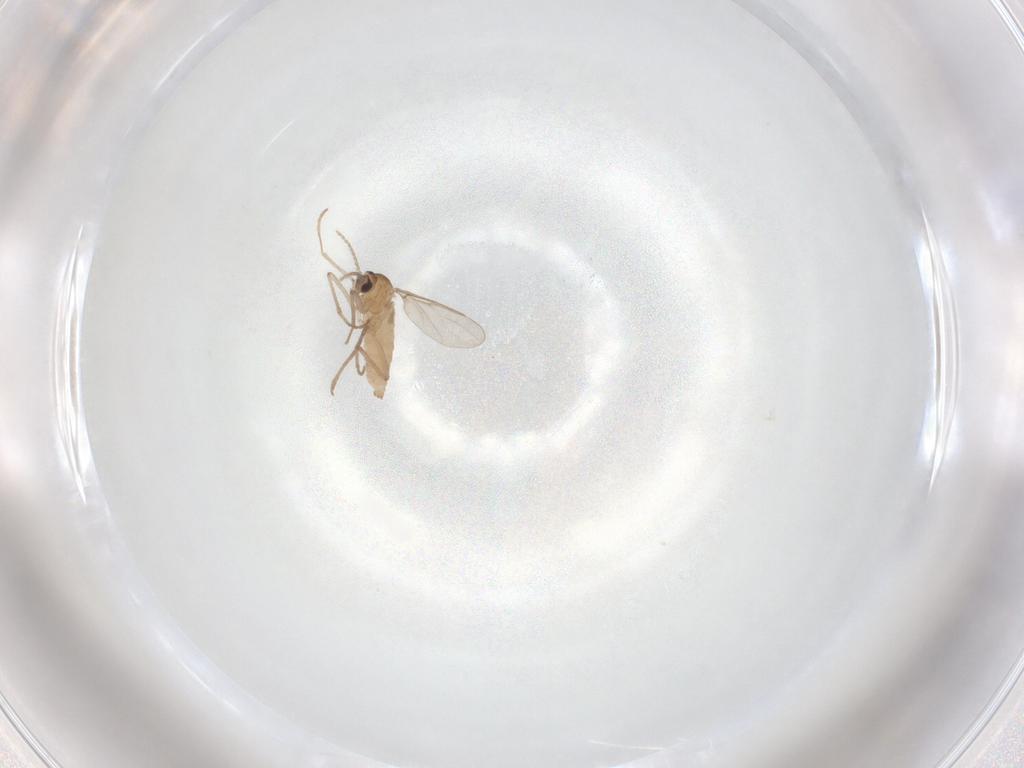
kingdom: Animalia
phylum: Arthropoda
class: Insecta
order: Diptera
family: Cecidomyiidae
